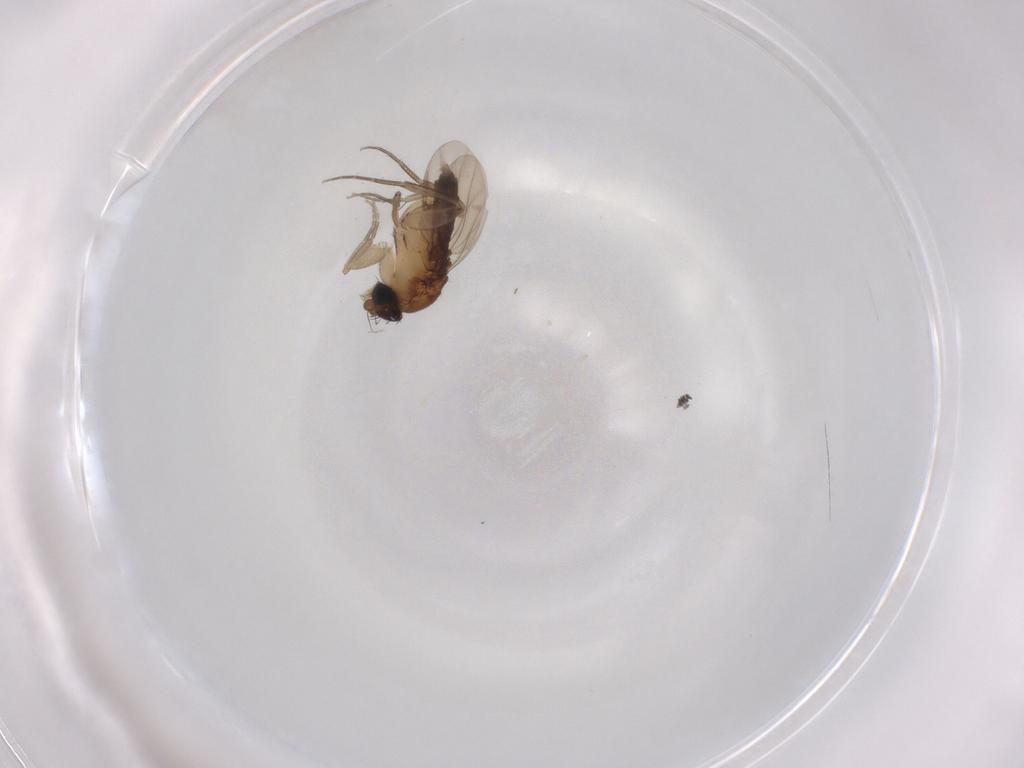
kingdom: Animalia
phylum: Arthropoda
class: Insecta
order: Diptera
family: Phoridae
